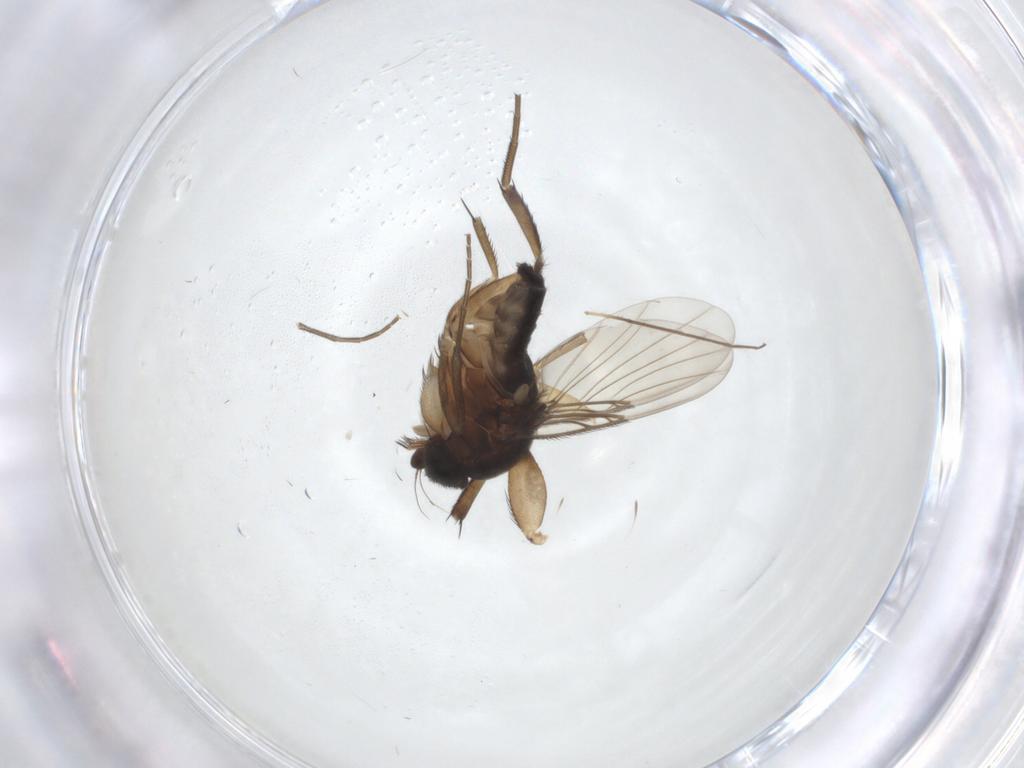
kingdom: Animalia
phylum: Arthropoda
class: Insecta
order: Diptera
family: Phoridae
